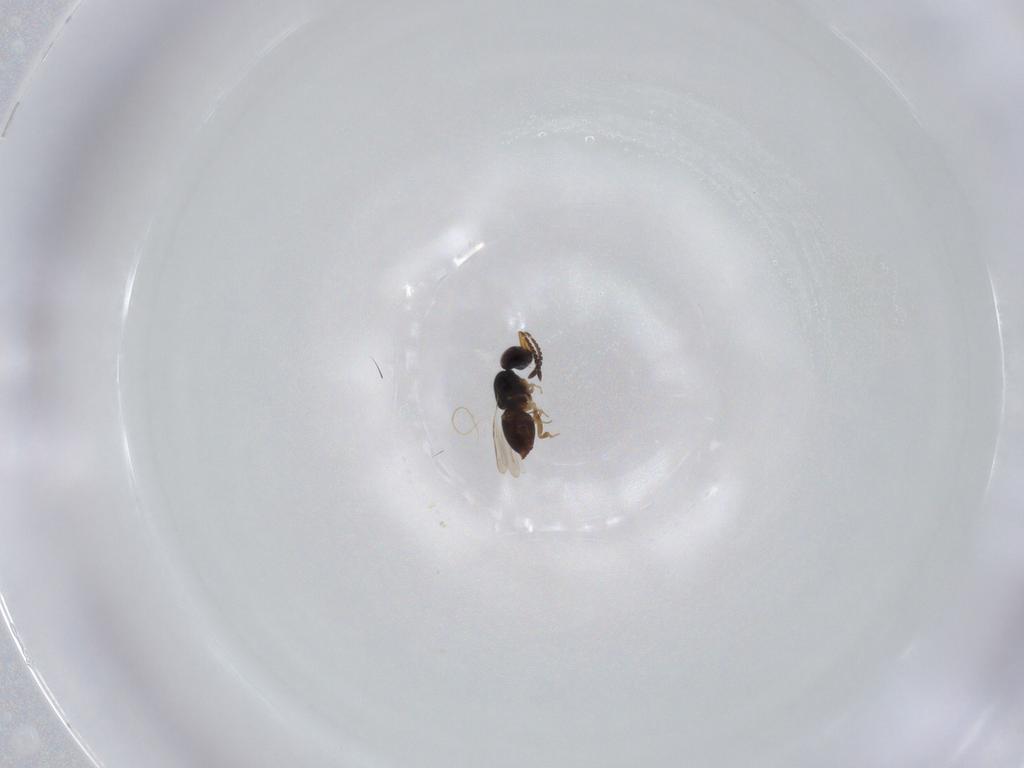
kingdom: Animalia
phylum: Arthropoda
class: Insecta
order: Hymenoptera
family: Ceraphronidae
